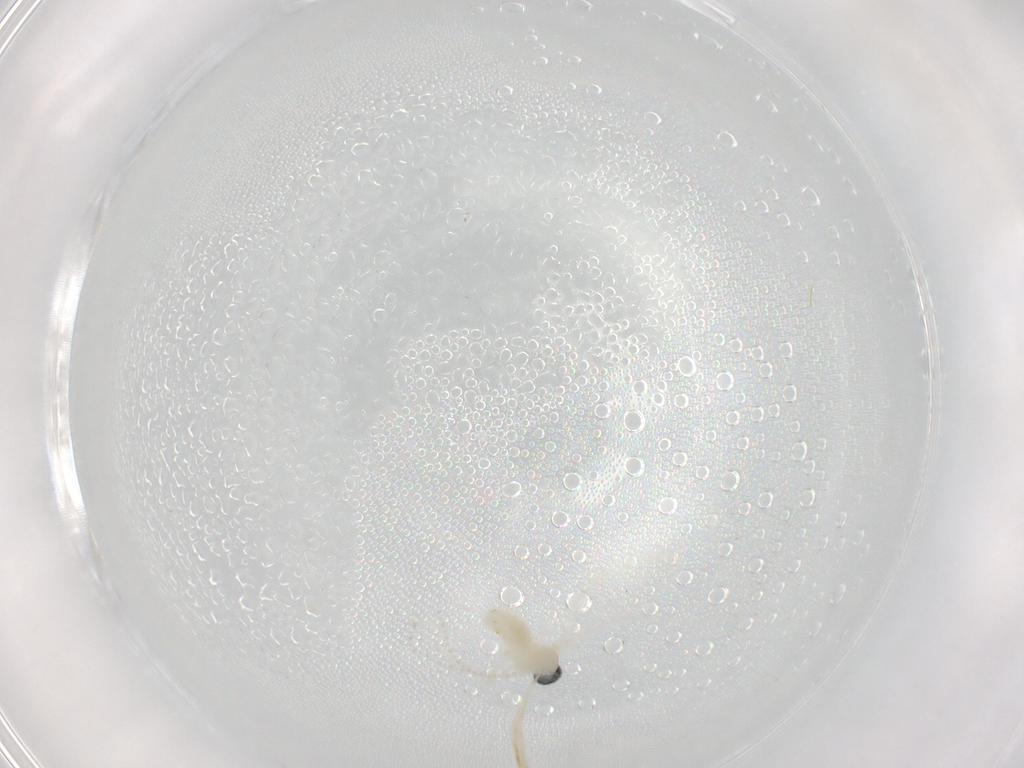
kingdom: Animalia
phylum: Arthropoda
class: Insecta
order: Diptera
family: Cecidomyiidae
